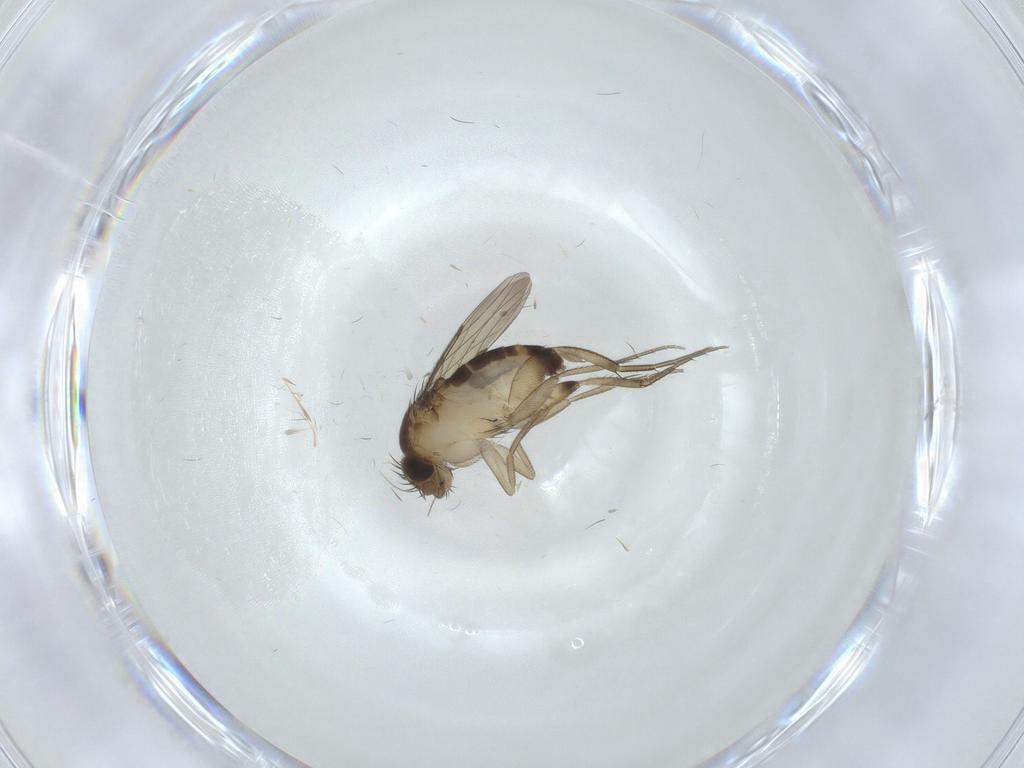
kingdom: Animalia
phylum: Arthropoda
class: Insecta
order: Diptera
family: Phoridae
